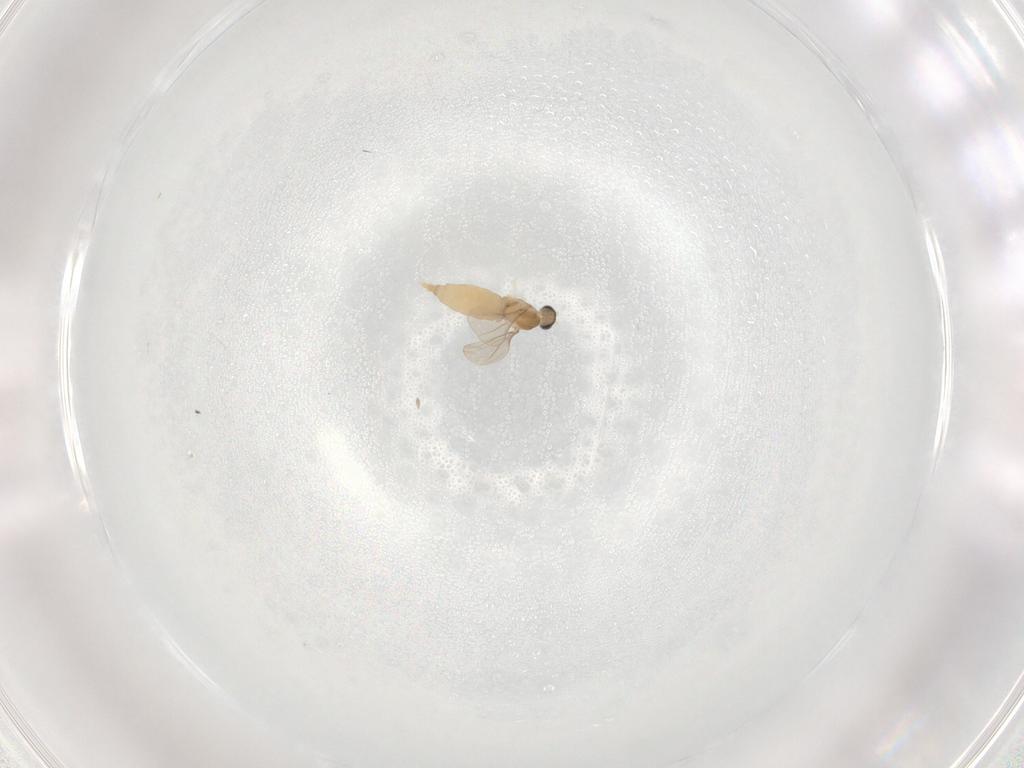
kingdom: Animalia
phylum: Arthropoda
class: Insecta
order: Diptera
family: Cecidomyiidae
